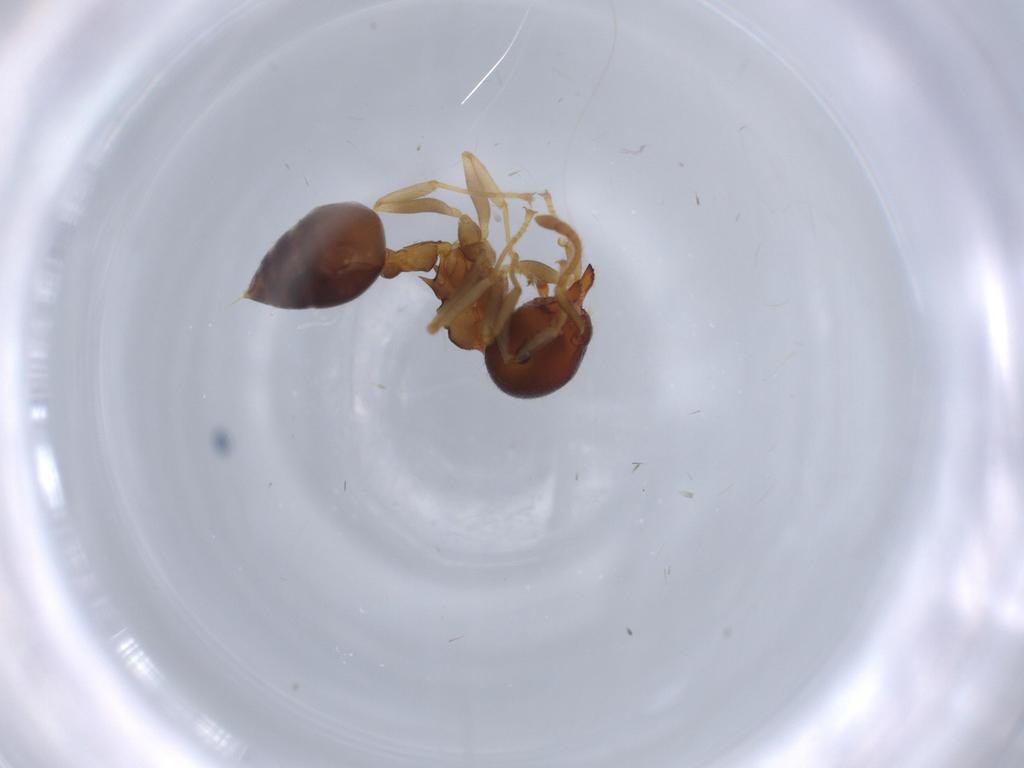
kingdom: Animalia
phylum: Arthropoda
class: Insecta
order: Hymenoptera
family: Formicidae
